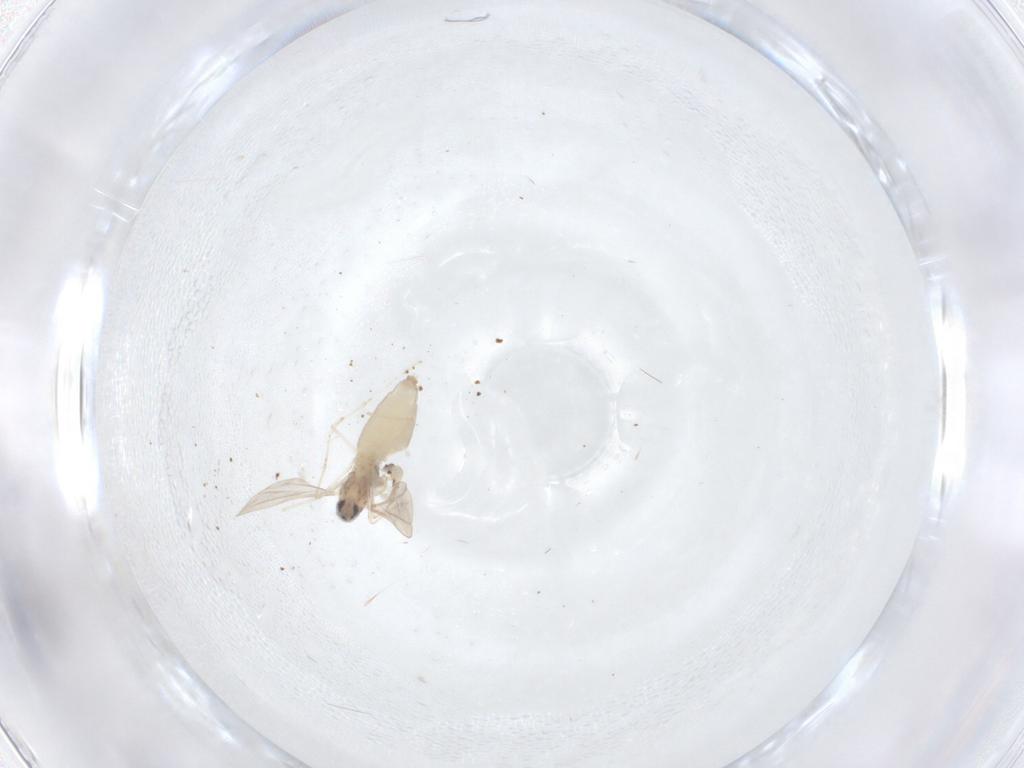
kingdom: Animalia
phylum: Arthropoda
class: Insecta
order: Diptera
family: Cecidomyiidae
